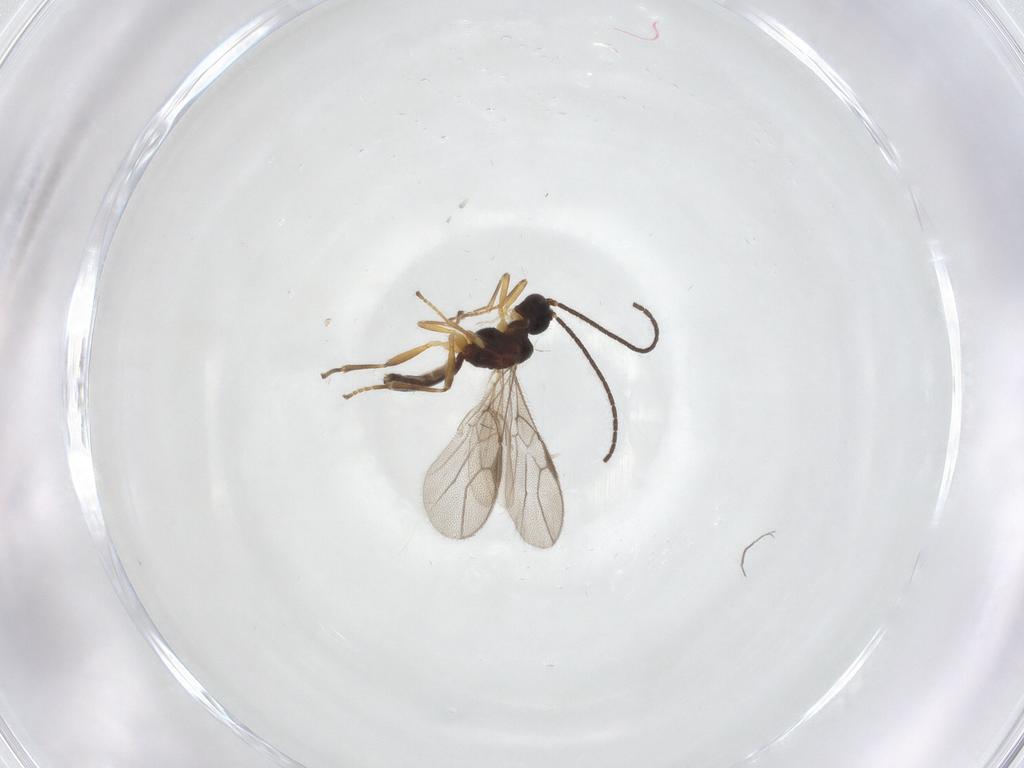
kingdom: Animalia
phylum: Arthropoda
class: Insecta
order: Hymenoptera
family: Braconidae
